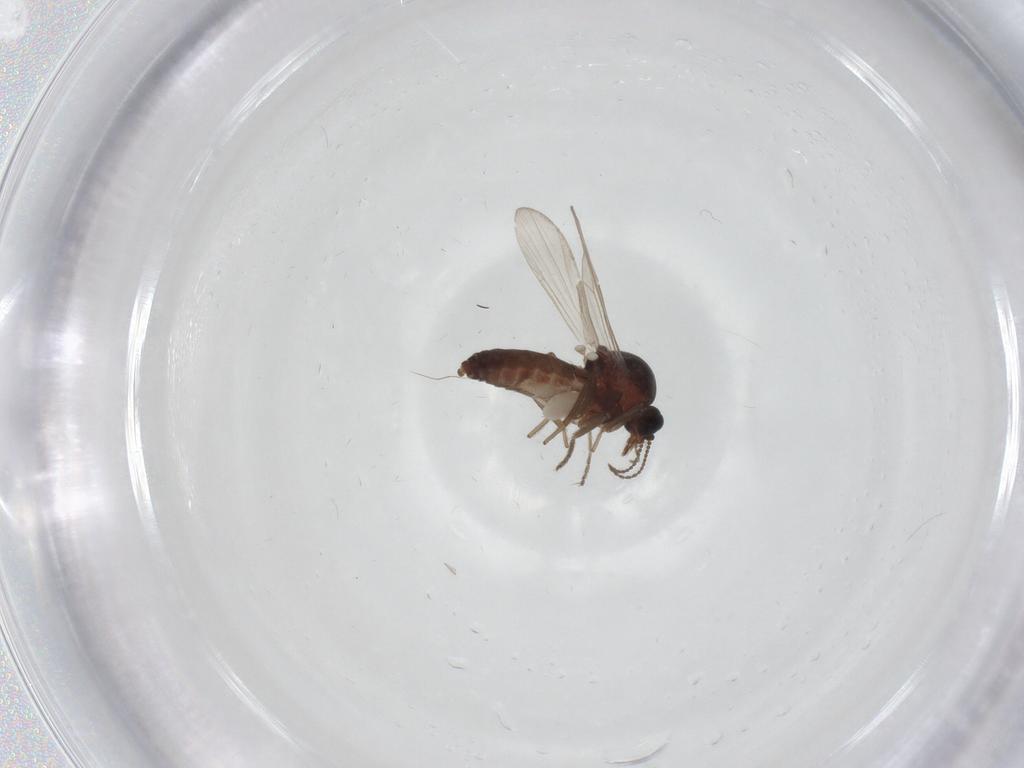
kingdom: Animalia
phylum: Arthropoda
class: Insecta
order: Diptera
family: Ceratopogonidae
